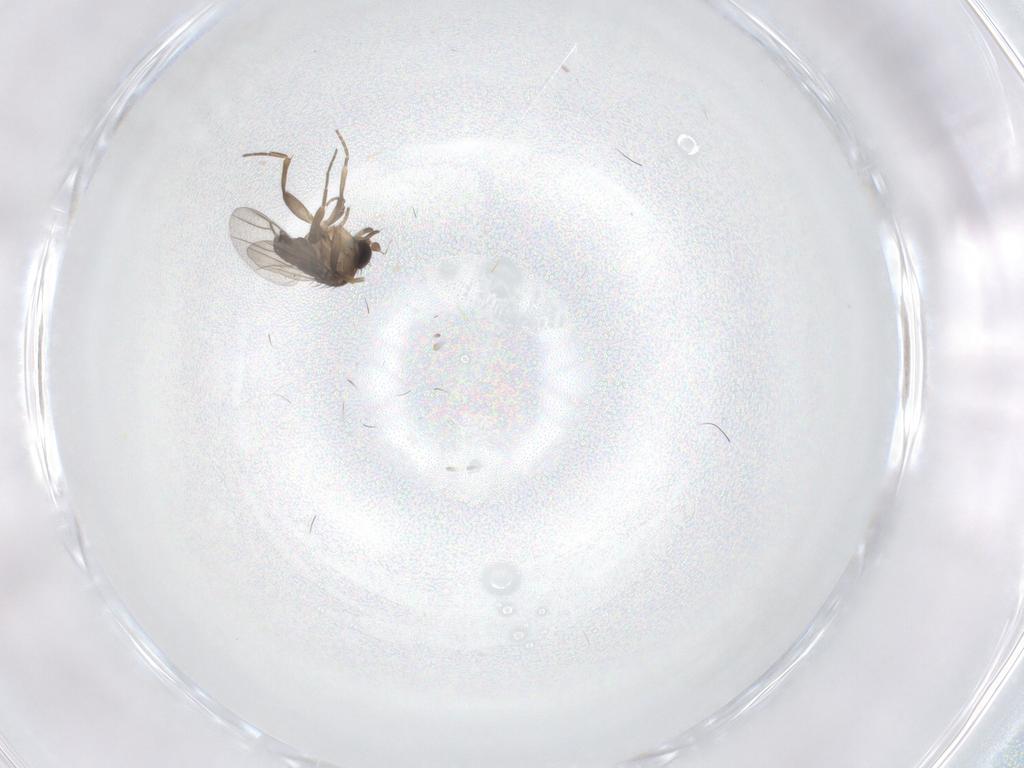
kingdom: Animalia
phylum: Arthropoda
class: Insecta
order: Diptera
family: Phoridae
